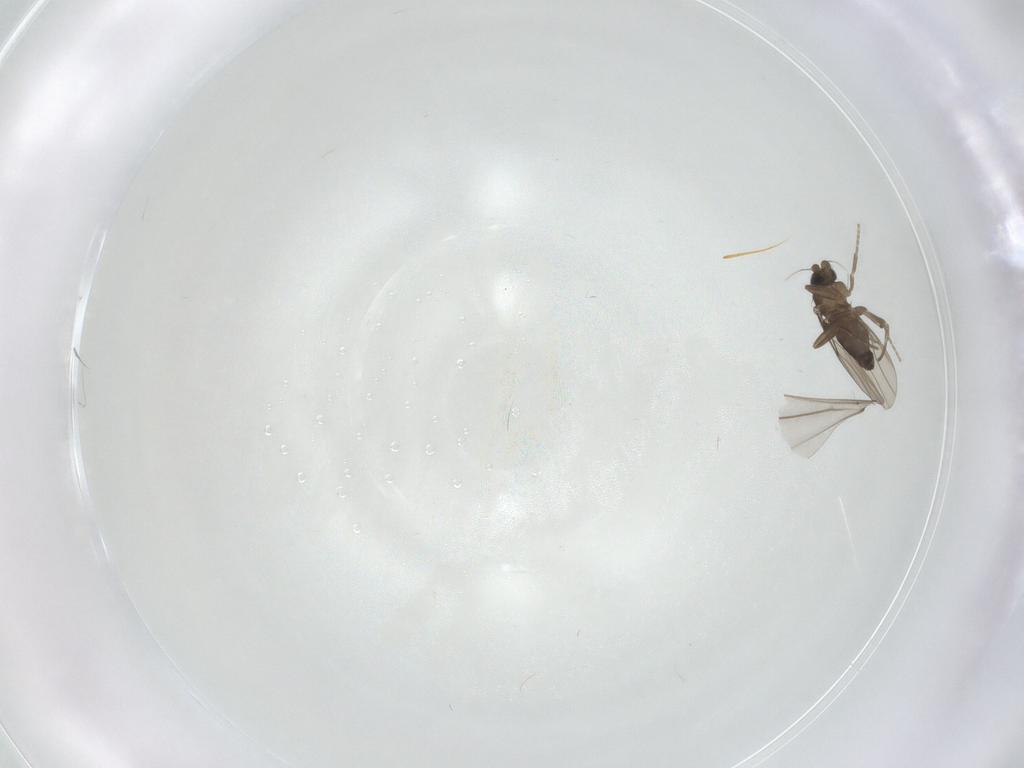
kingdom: Animalia
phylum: Arthropoda
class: Insecta
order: Diptera
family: Cecidomyiidae
